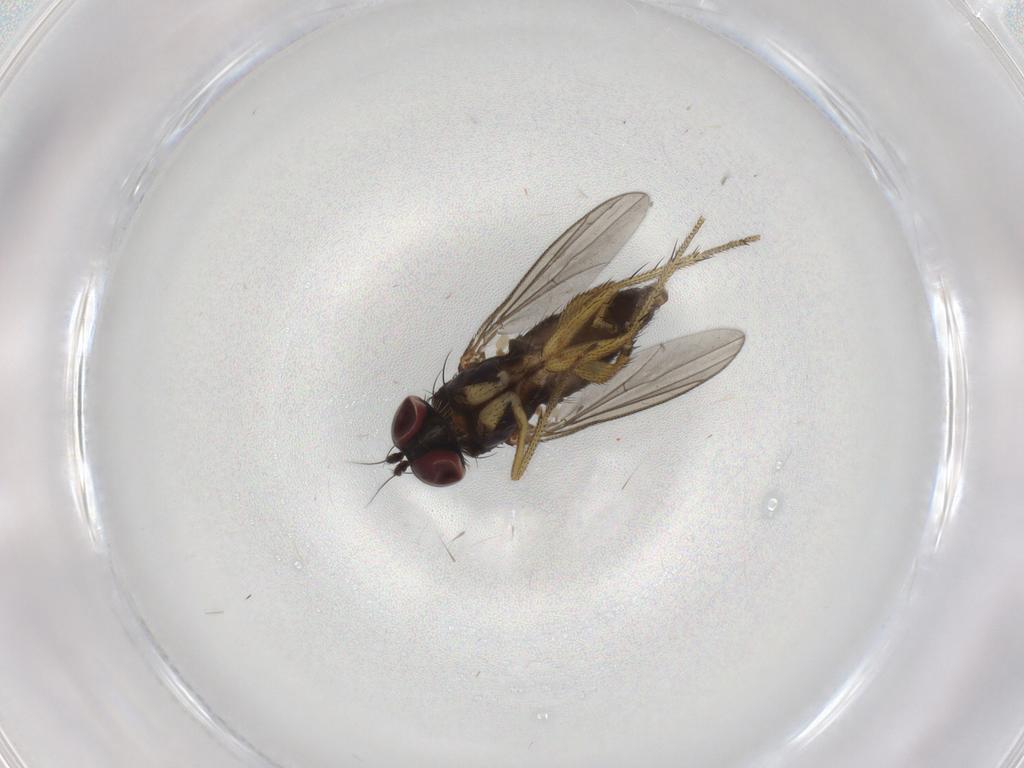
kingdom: Animalia
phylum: Arthropoda
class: Insecta
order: Diptera
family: Dolichopodidae
